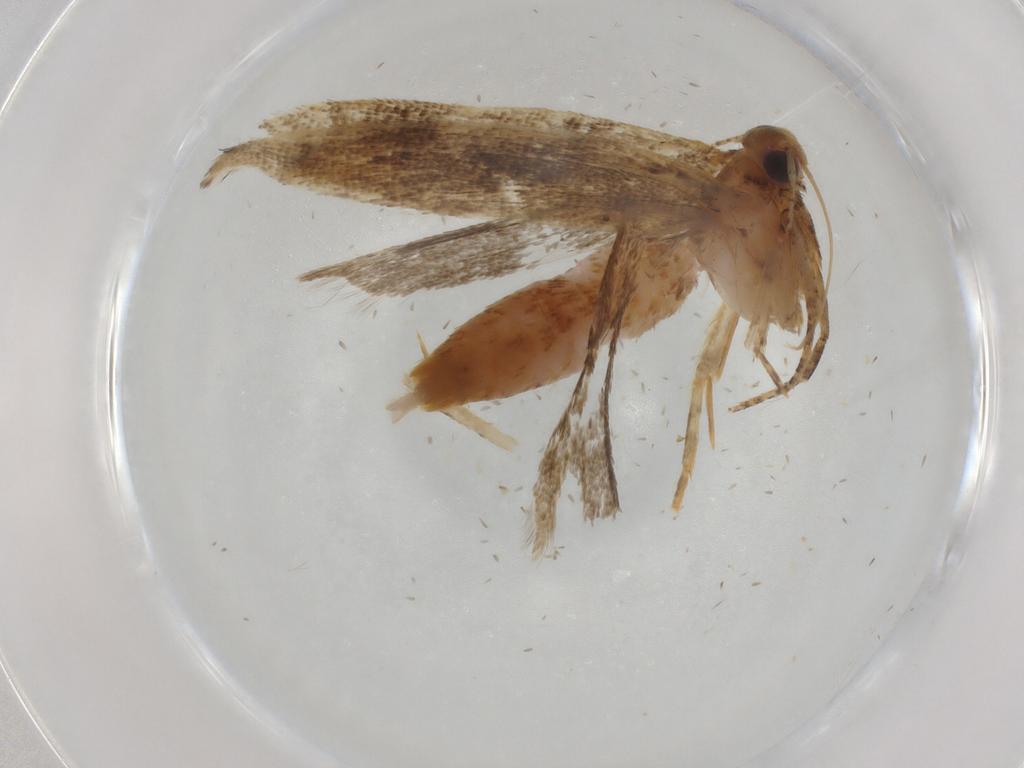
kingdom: Animalia
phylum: Arthropoda
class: Insecta
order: Lepidoptera
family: Gelechiidae
